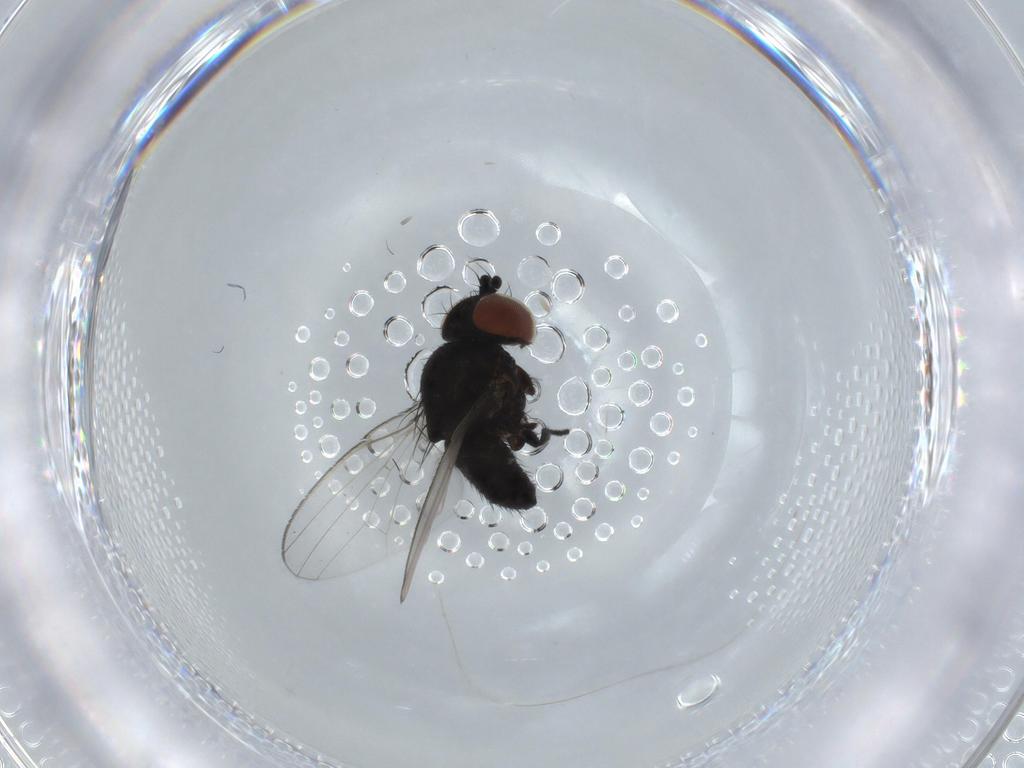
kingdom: Animalia
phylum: Arthropoda
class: Insecta
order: Diptera
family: Milichiidae
